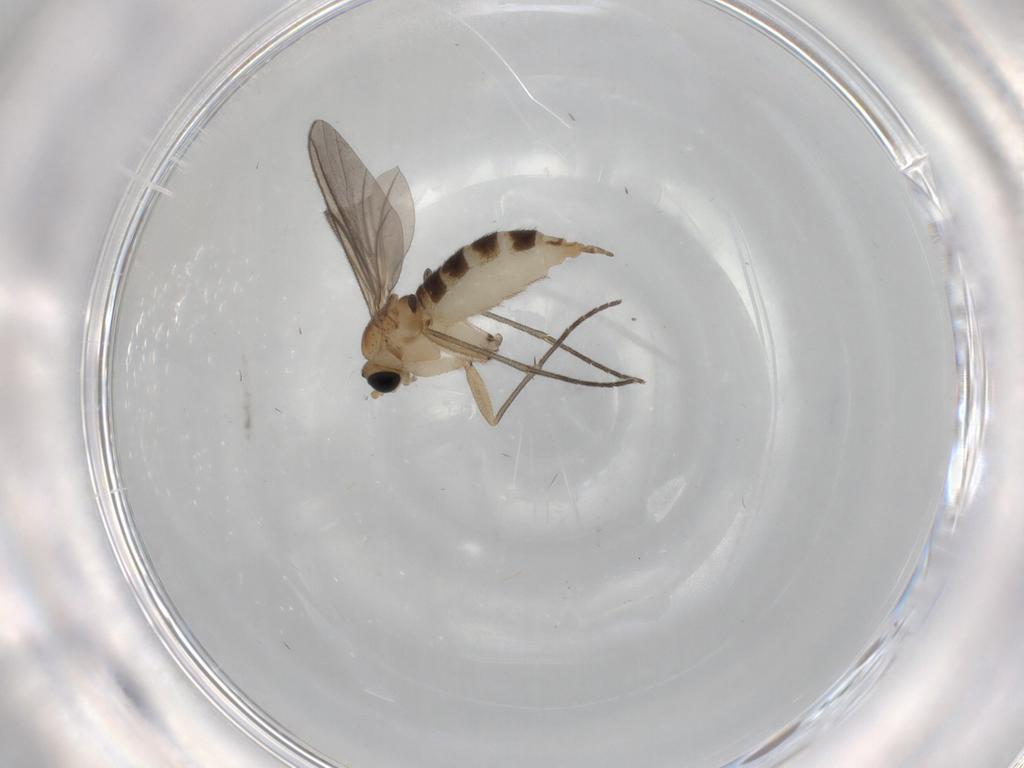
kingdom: Animalia
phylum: Arthropoda
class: Insecta
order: Diptera
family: Sciaridae
